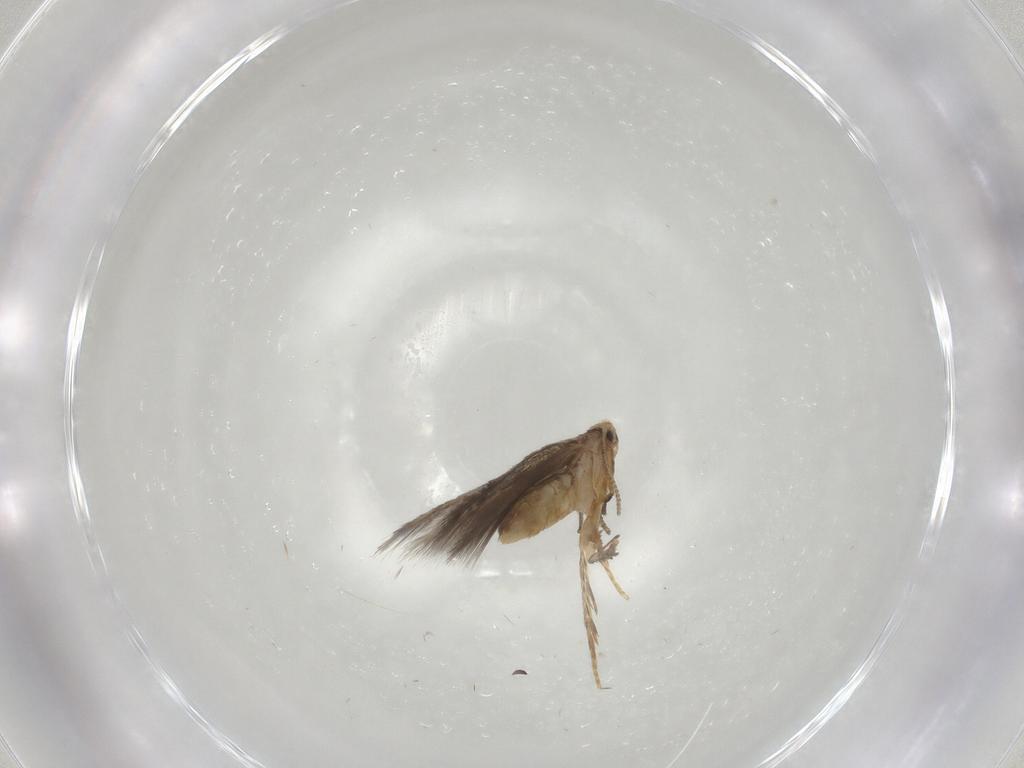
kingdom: Animalia
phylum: Arthropoda
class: Insecta
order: Lepidoptera
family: Nepticulidae
